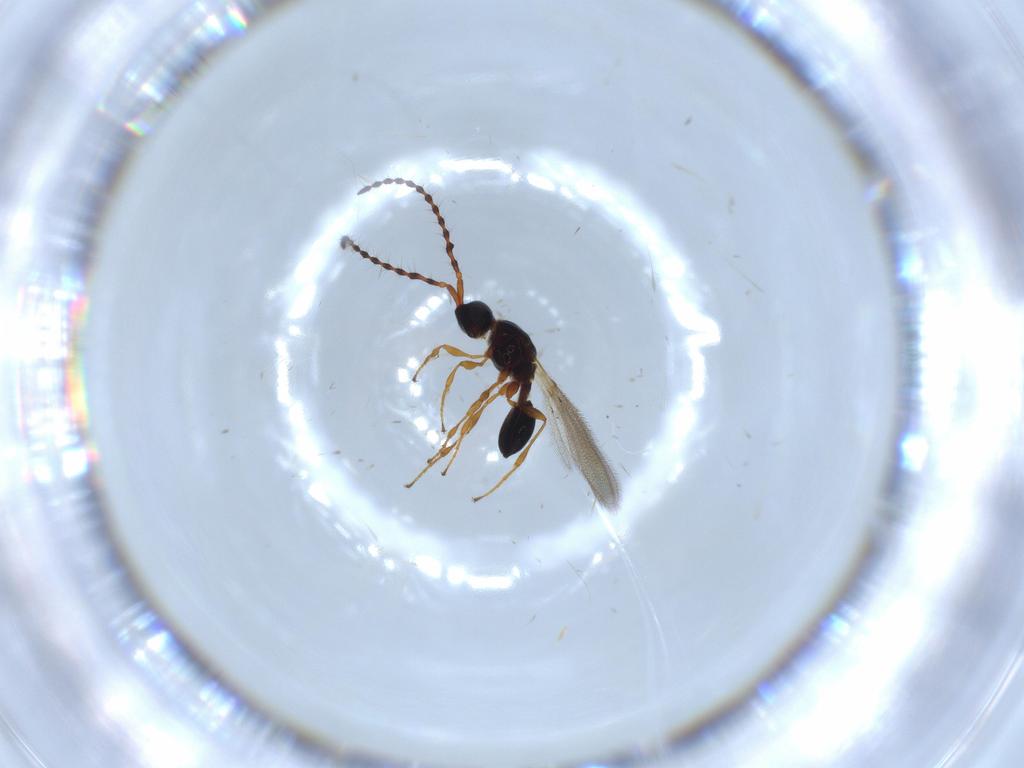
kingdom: Animalia
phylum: Arthropoda
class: Insecta
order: Hymenoptera
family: Diapriidae
